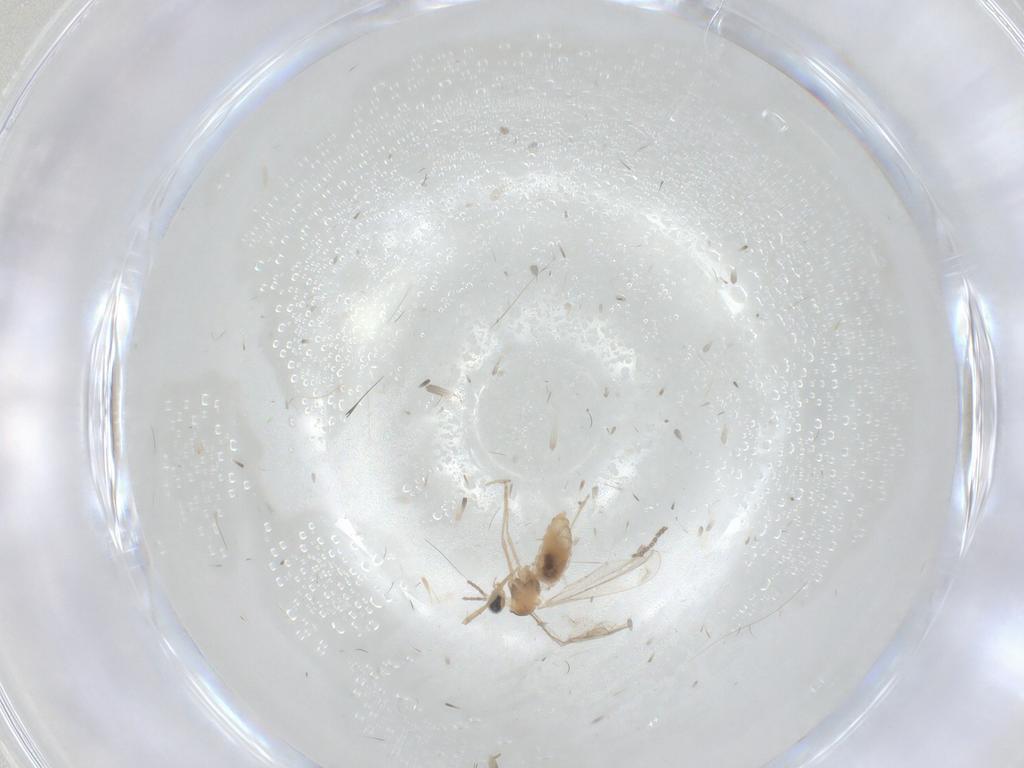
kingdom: Animalia
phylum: Arthropoda
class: Insecta
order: Diptera
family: Sciaridae
